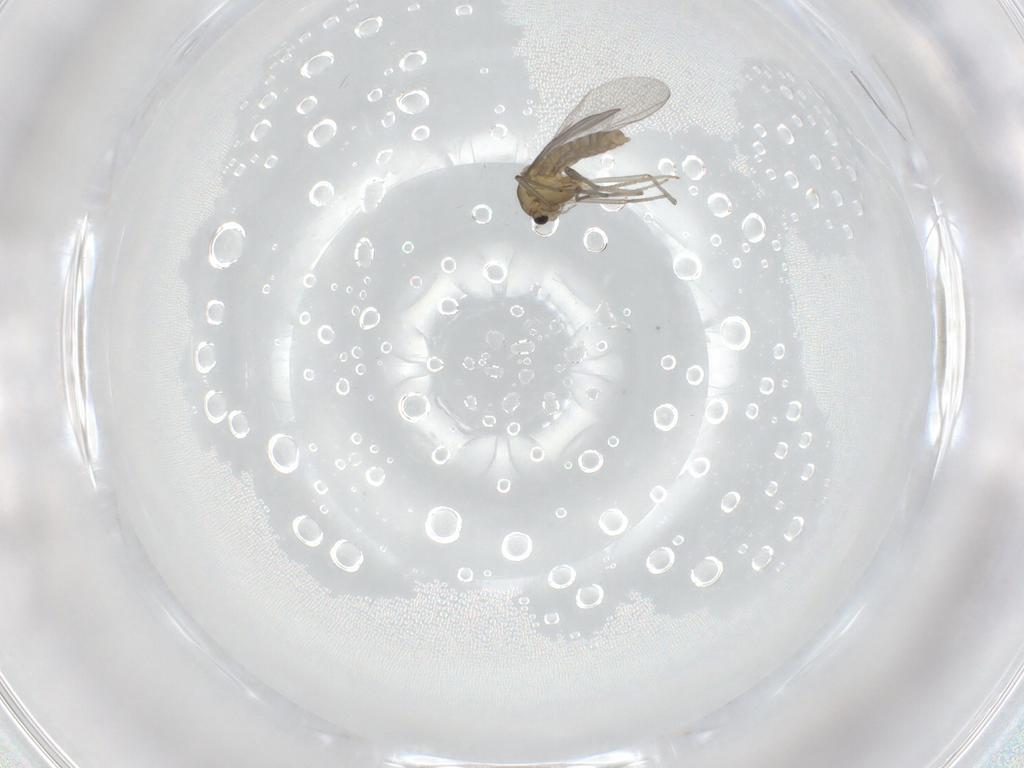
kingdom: Animalia
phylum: Arthropoda
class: Insecta
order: Diptera
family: Chironomidae
